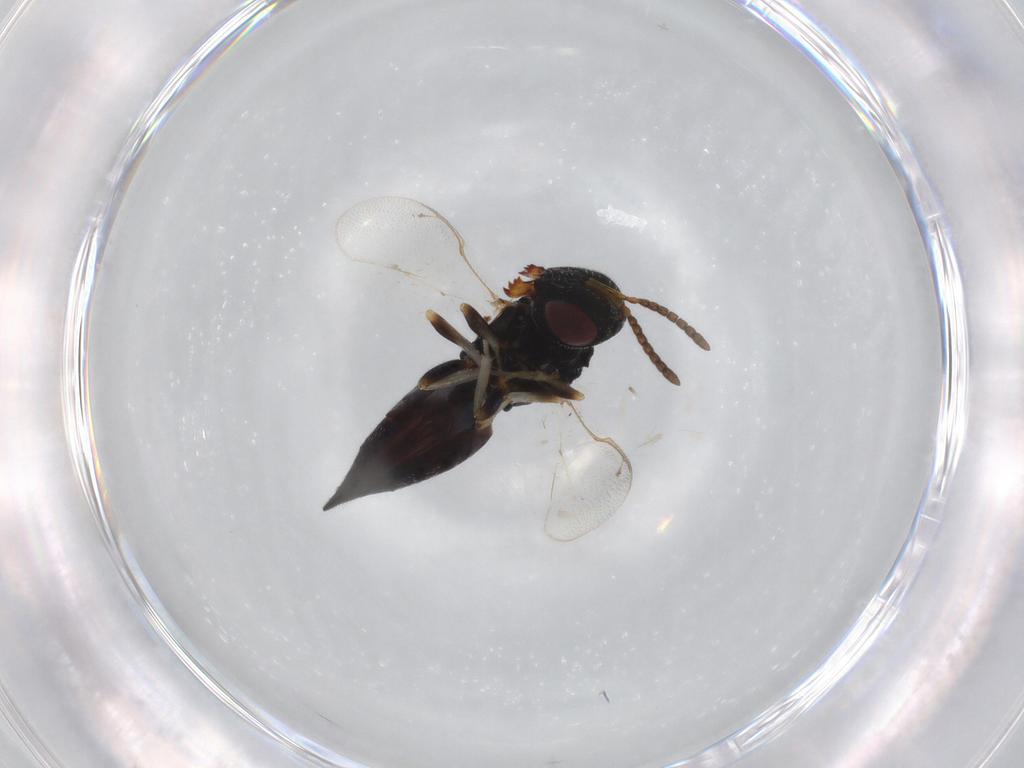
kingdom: Animalia
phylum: Arthropoda
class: Insecta
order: Hymenoptera
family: Pteromalidae
